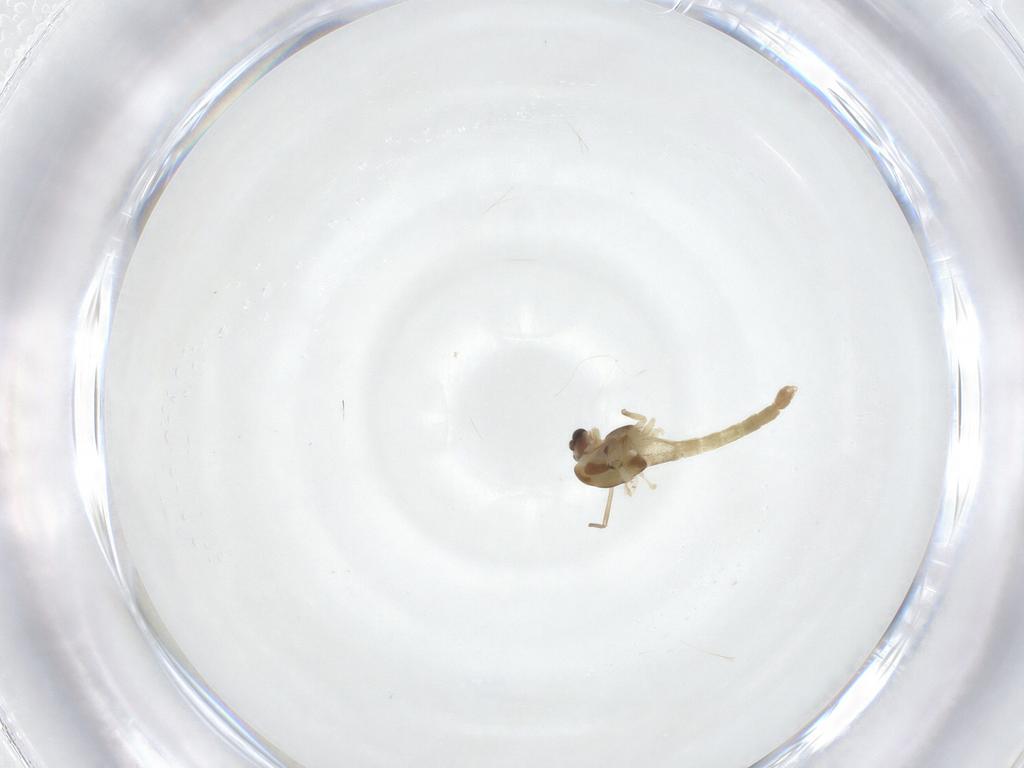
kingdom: Animalia
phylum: Arthropoda
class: Insecta
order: Diptera
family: Chironomidae
